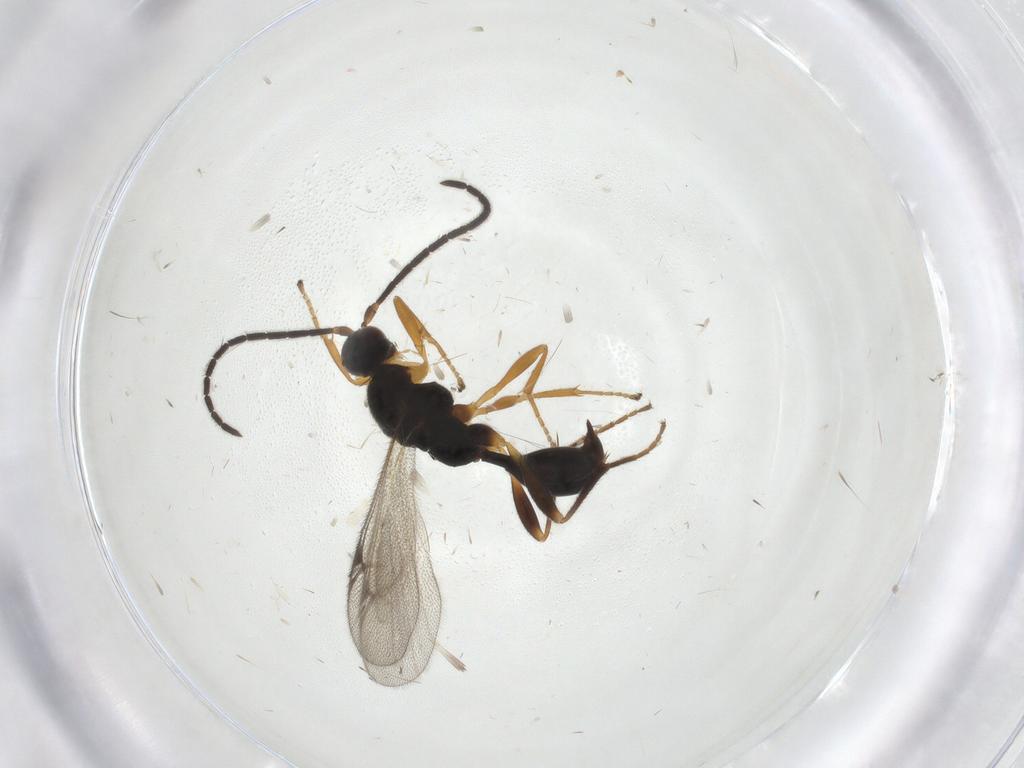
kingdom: Animalia
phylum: Arthropoda
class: Insecta
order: Hymenoptera
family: Proctotrupidae
